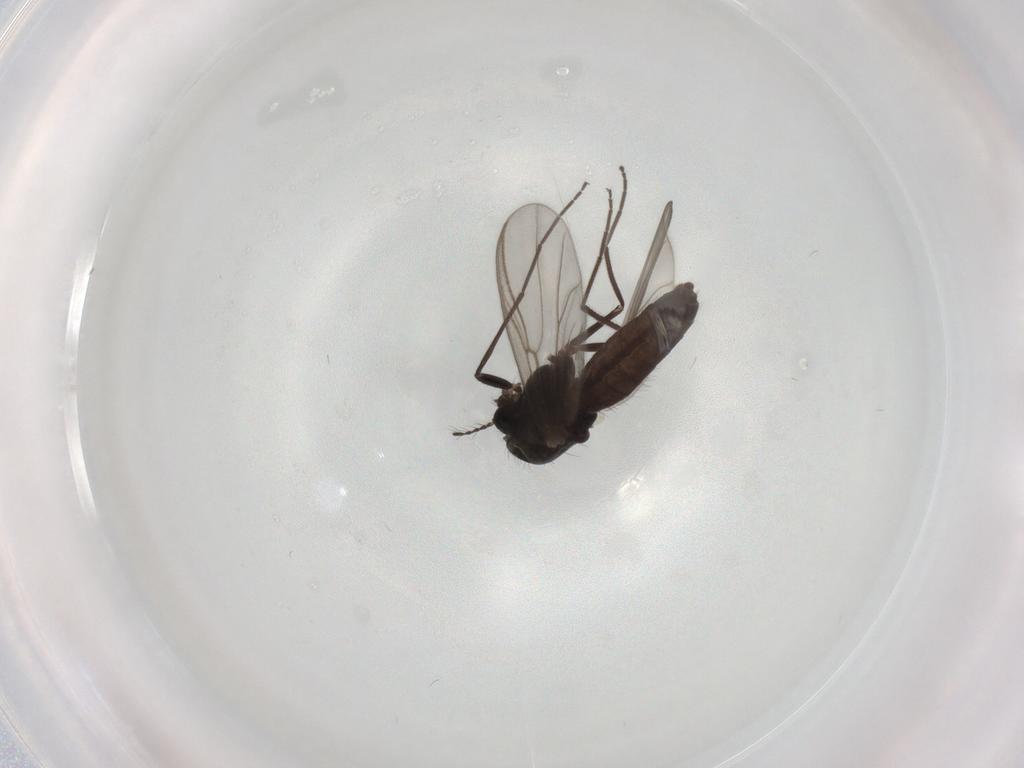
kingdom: Animalia
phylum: Arthropoda
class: Insecta
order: Diptera
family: Chironomidae
